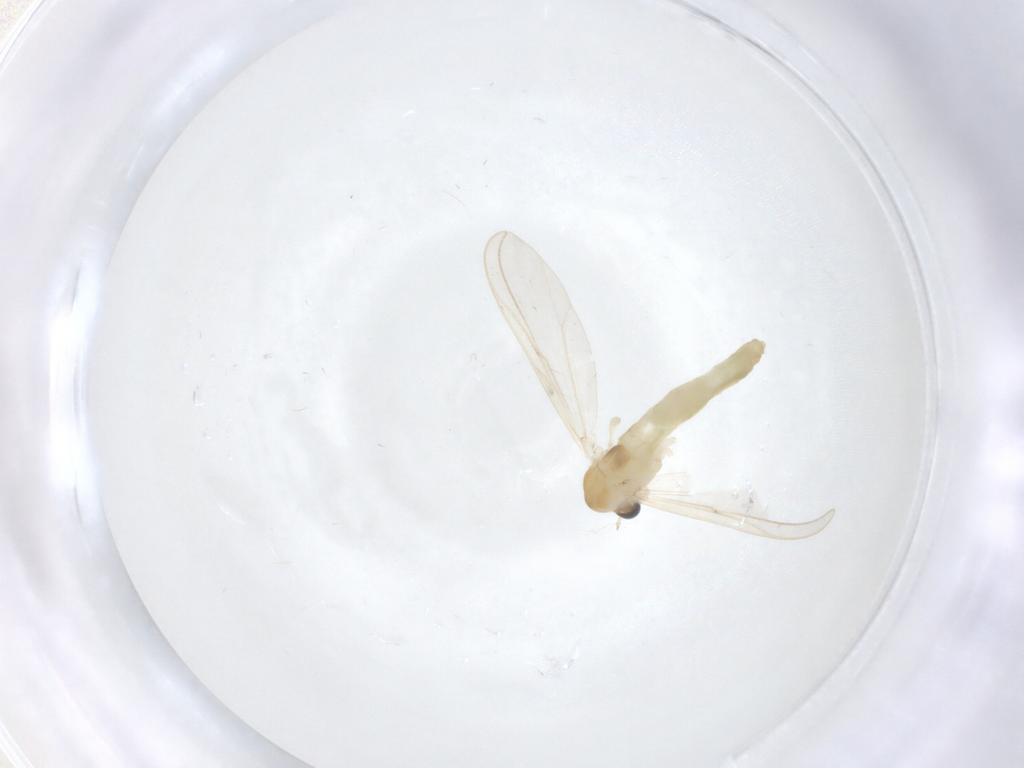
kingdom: Animalia
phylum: Arthropoda
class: Insecta
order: Diptera
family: Chironomidae
